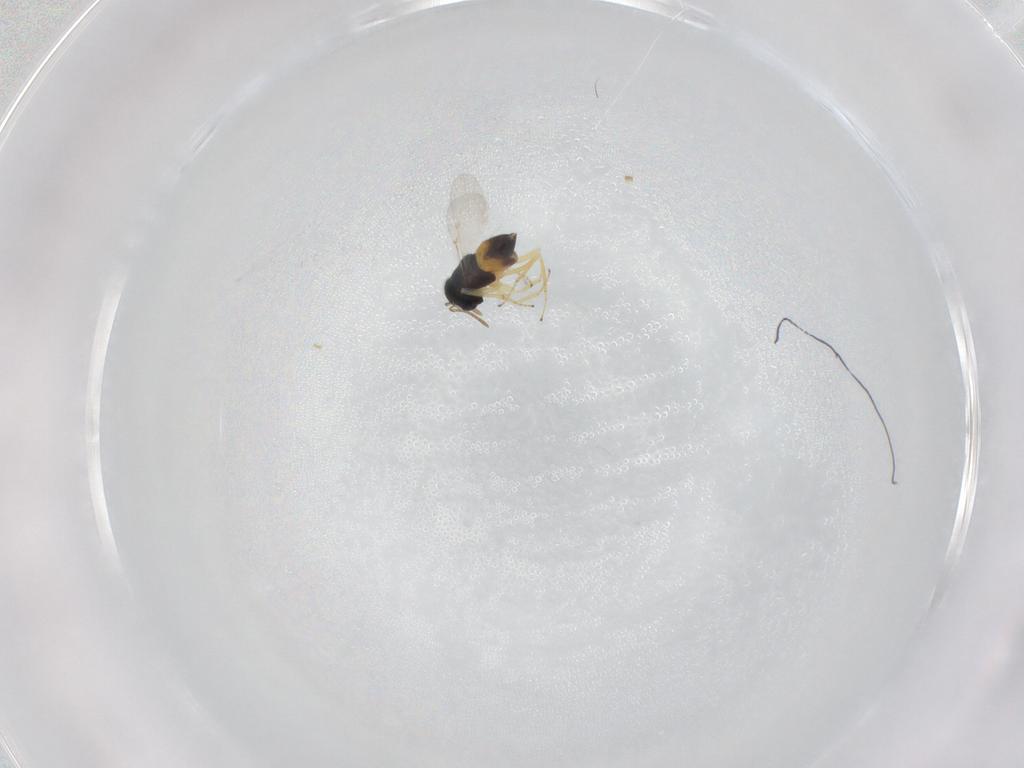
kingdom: Animalia
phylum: Arthropoda
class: Insecta
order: Hymenoptera
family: Encyrtidae
